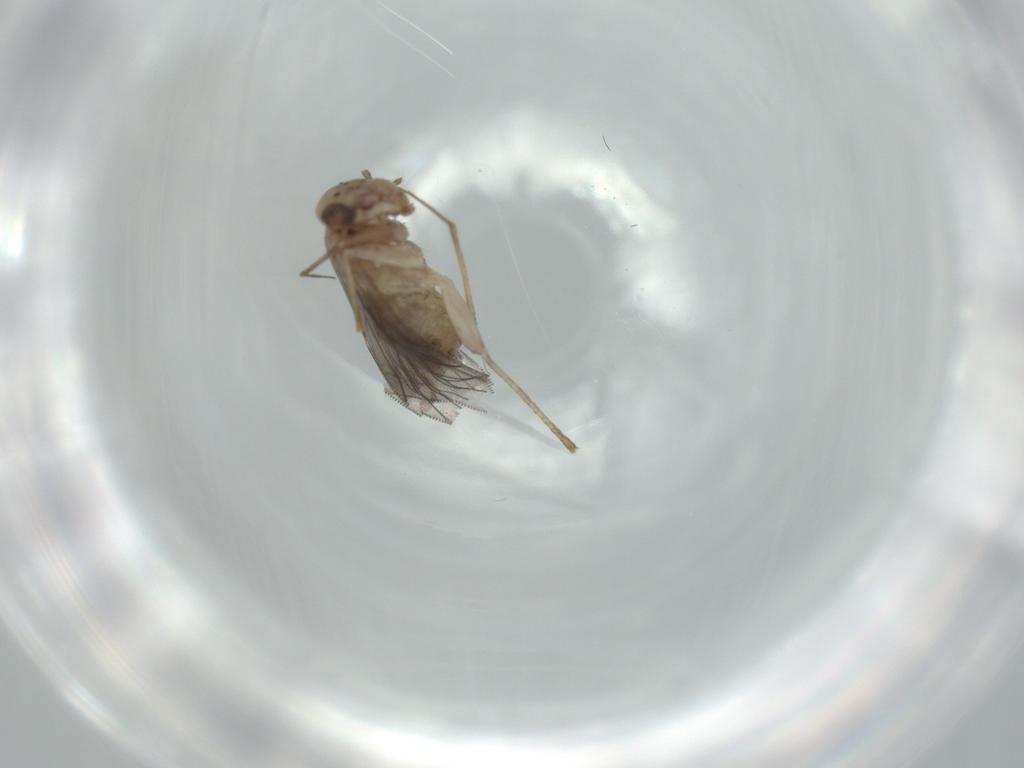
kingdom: Animalia
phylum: Arthropoda
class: Insecta
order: Psocodea
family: Lepidopsocidae
